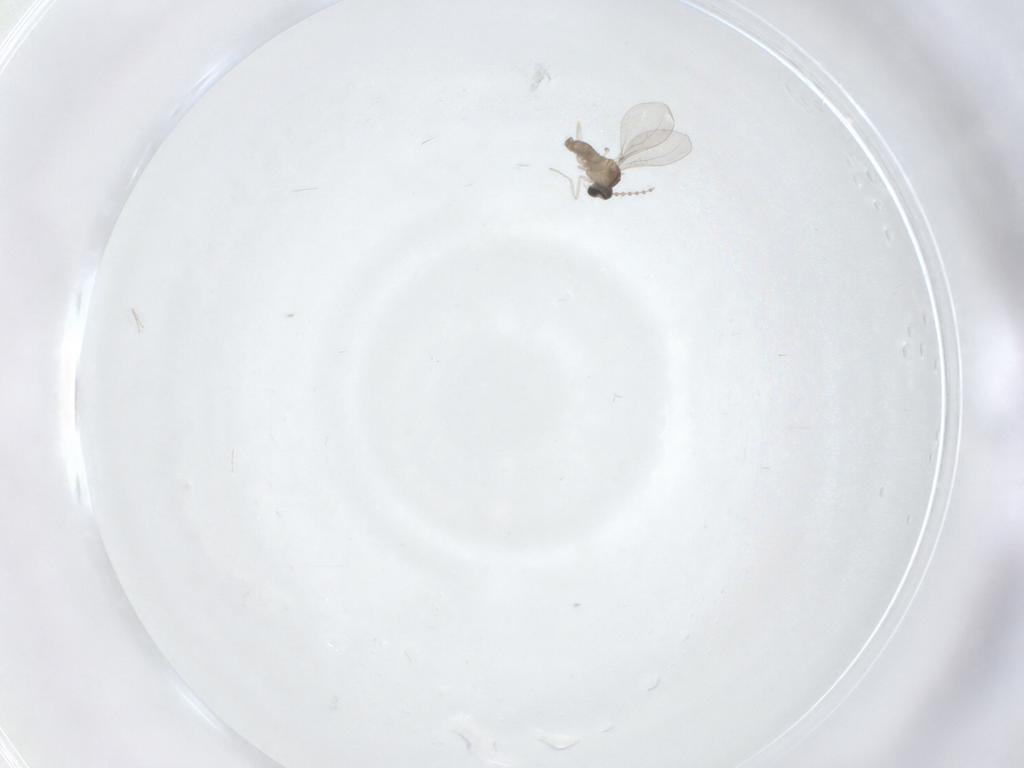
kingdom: Animalia
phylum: Arthropoda
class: Insecta
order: Diptera
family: Cecidomyiidae
